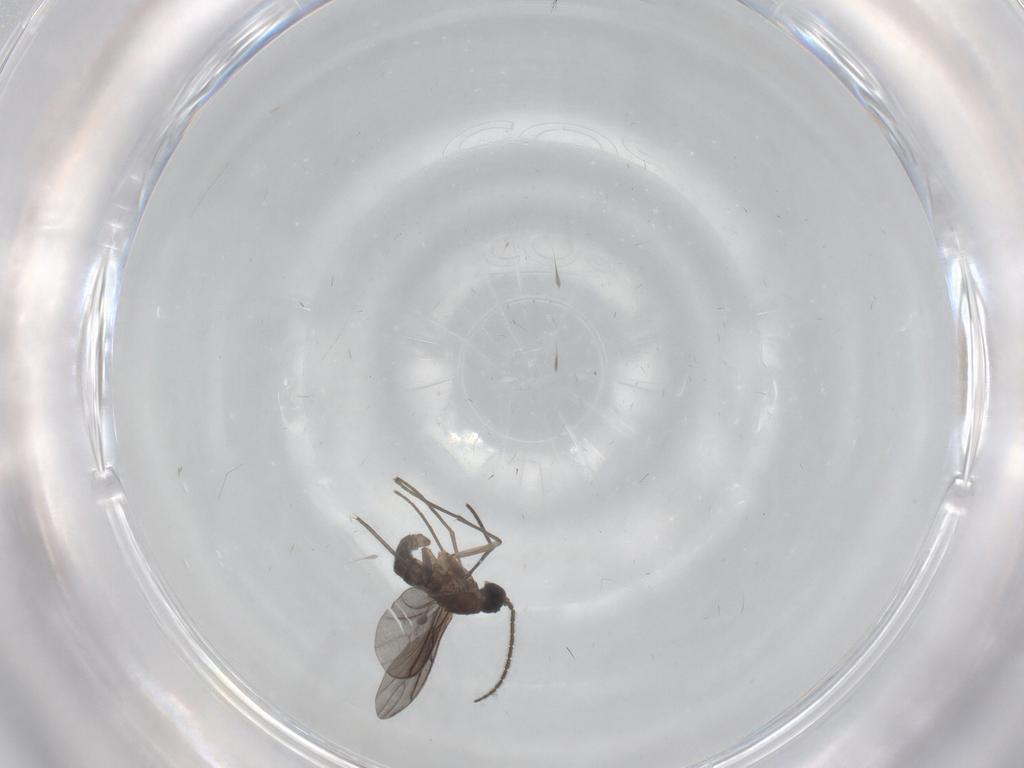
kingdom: Animalia
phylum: Arthropoda
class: Insecta
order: Diptera
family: Sciaridae
